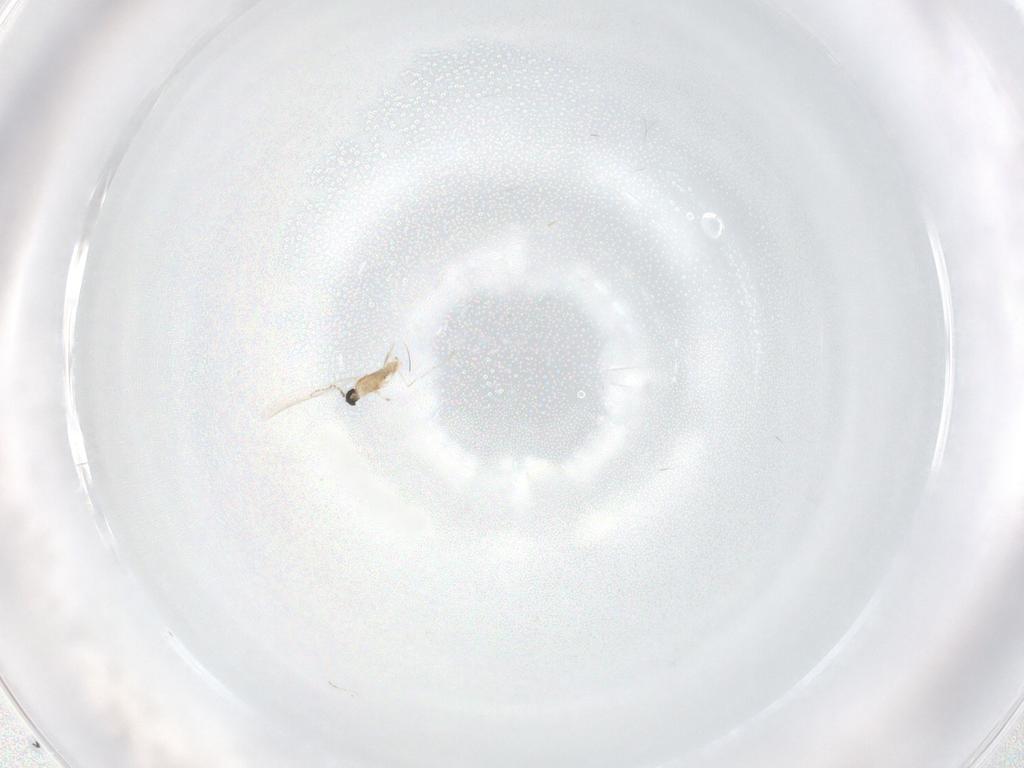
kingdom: Animalia
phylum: Arthropoda
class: Insecta
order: Diptera
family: Cecidomyiidae
